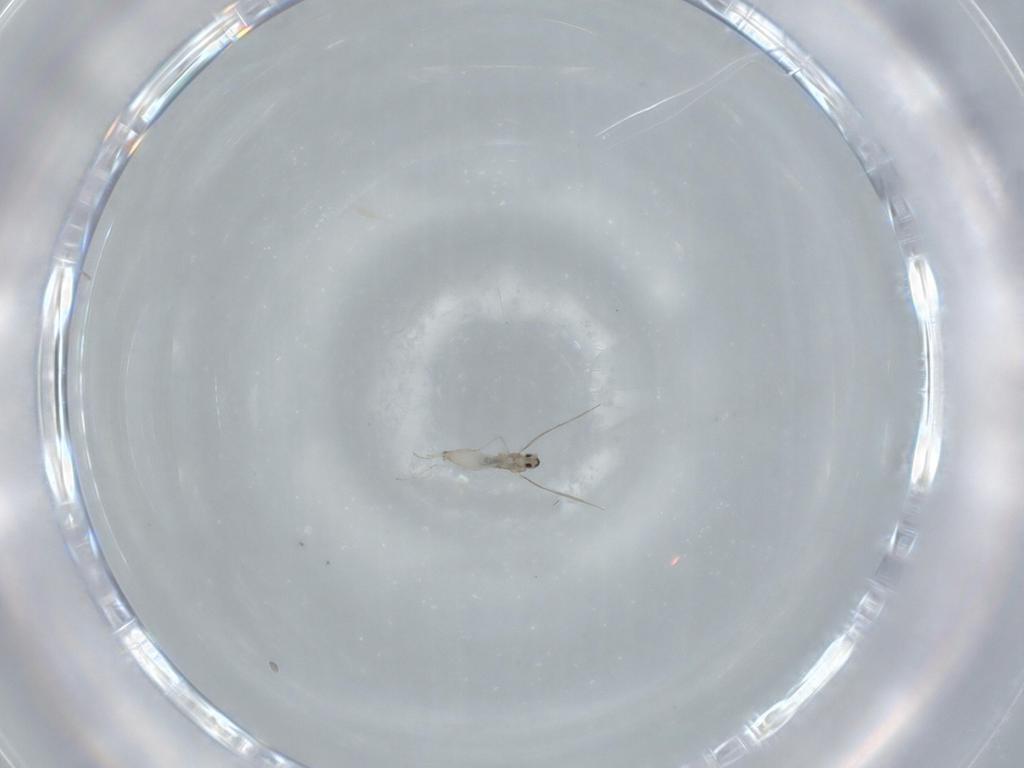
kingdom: Animalia
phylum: Arthropoda
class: Insecta
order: Diptera
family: Cecidomyiidae
